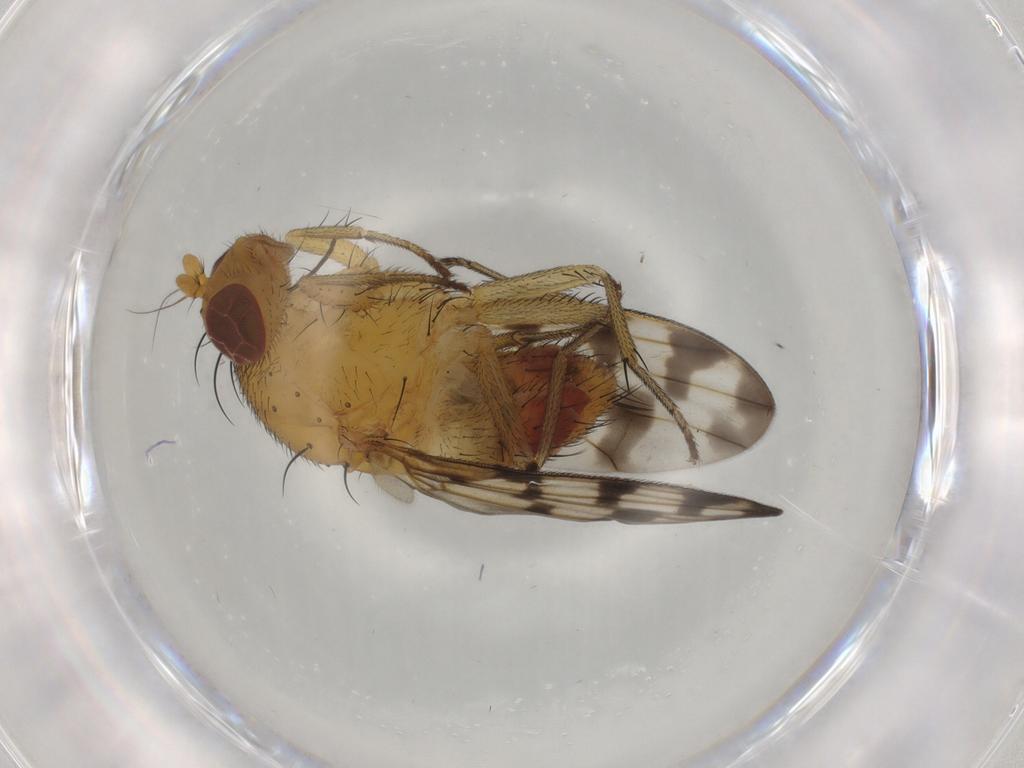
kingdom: Animalia
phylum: Arthropoda
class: Insecta
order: Diptera
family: Cecidomyiidae
